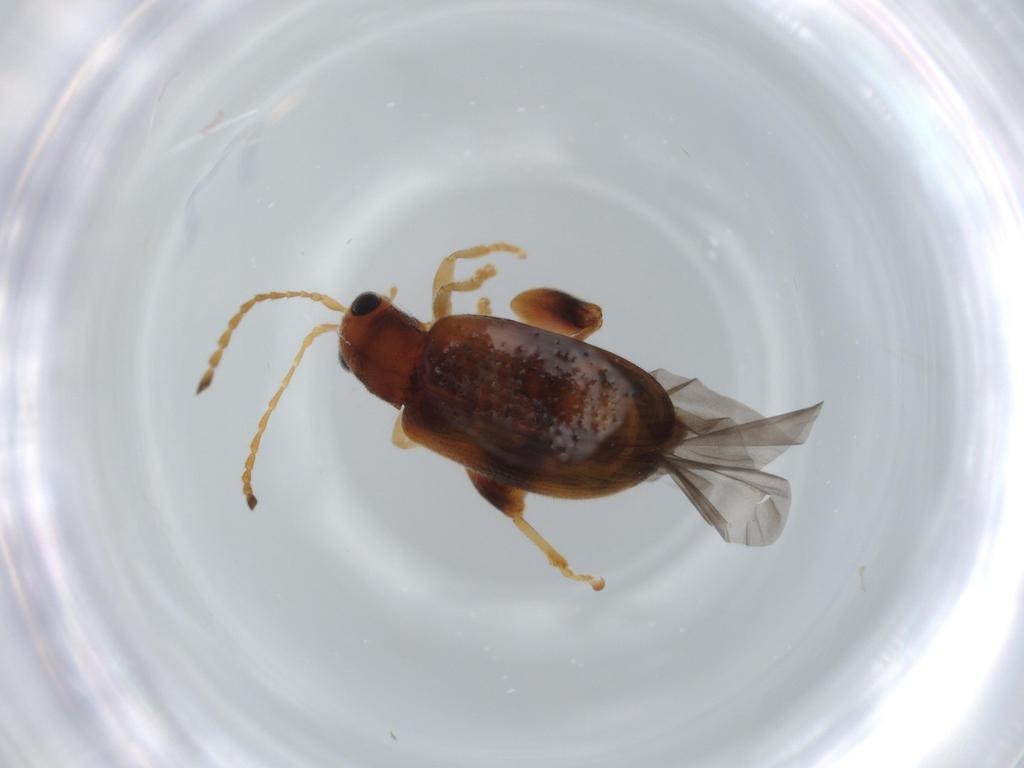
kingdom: Animalia
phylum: Arthropoda
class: Insecta
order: Coleoptera
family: Chrysomelidae
